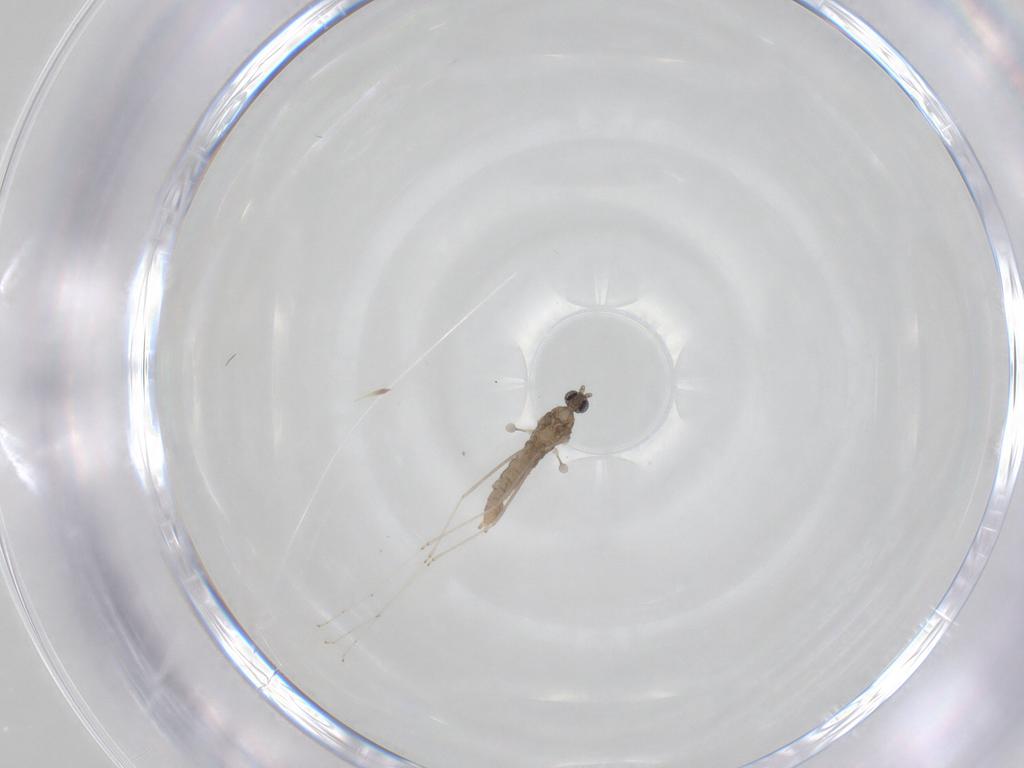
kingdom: Animalia
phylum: Arthropoda
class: Insecta
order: Diptera
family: Cecidomyiidae
